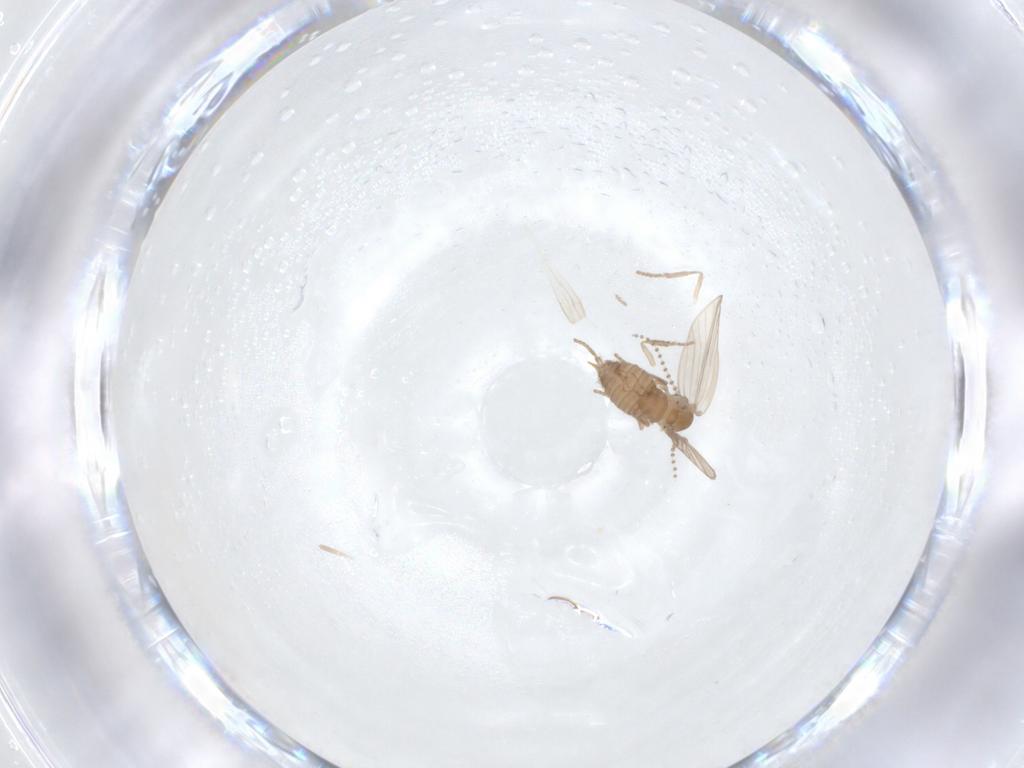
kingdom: Animalia
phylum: Arthropoda
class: Insecta
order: Diptera
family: Psychodidae
